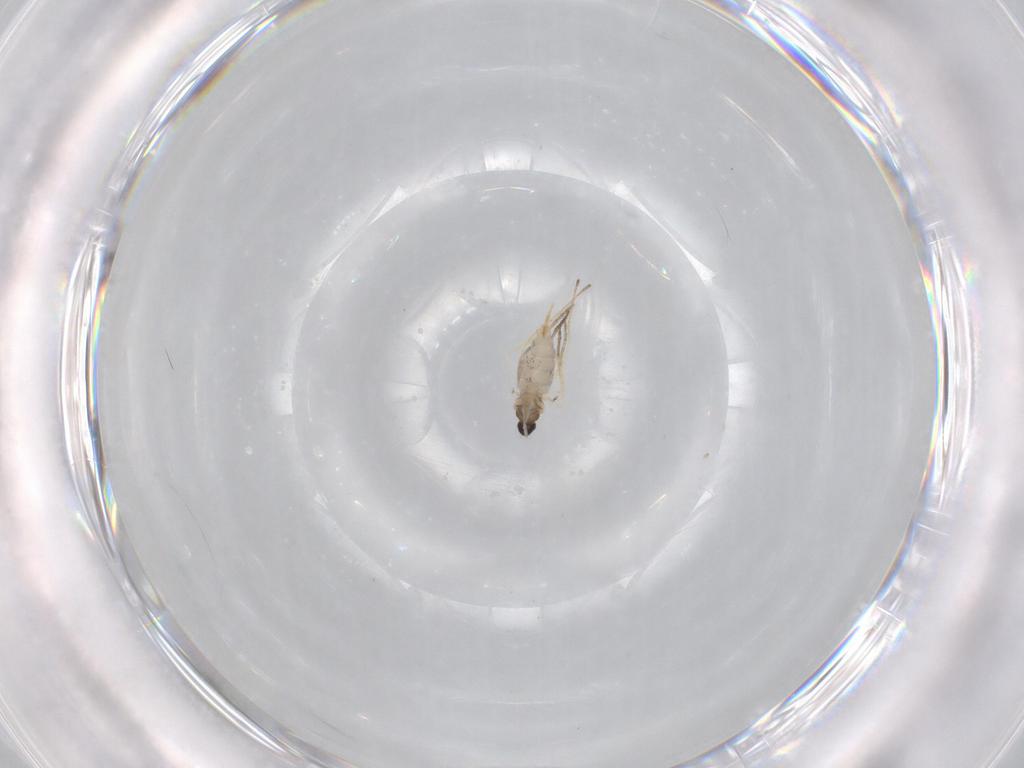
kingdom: Animalia
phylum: Arthropoda
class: Insecta
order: Diptera
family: Cecidomyiidae
